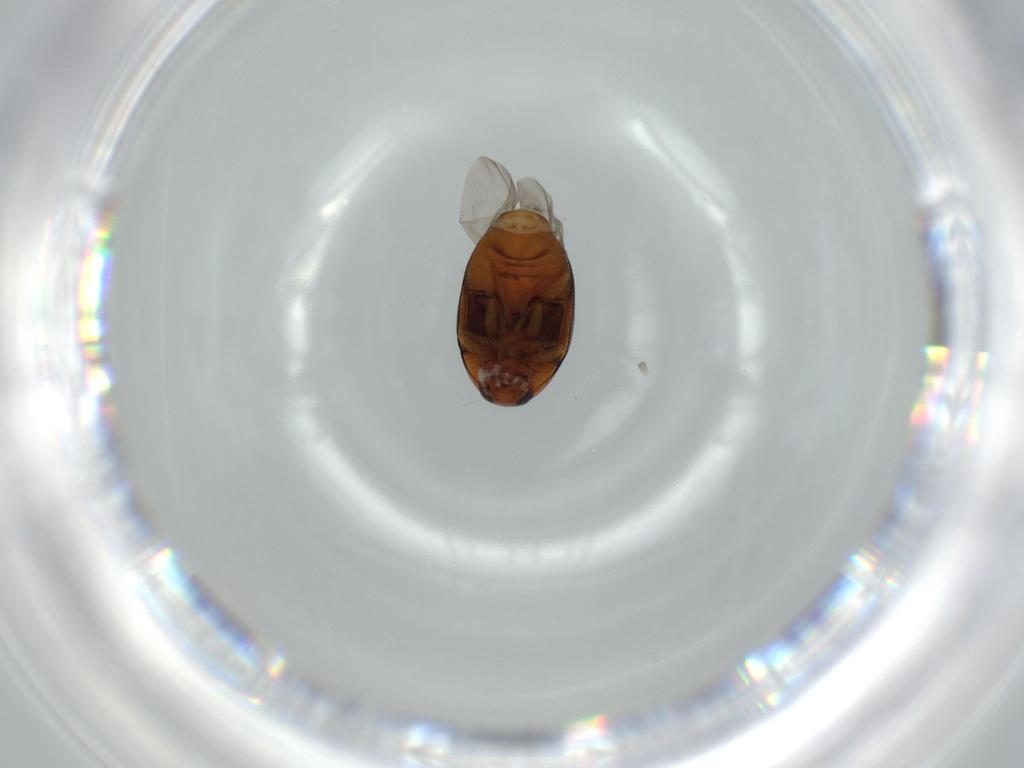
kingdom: Animalia
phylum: Arthropoda
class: Insecta
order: Coleoptera
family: Chrysomelidae
